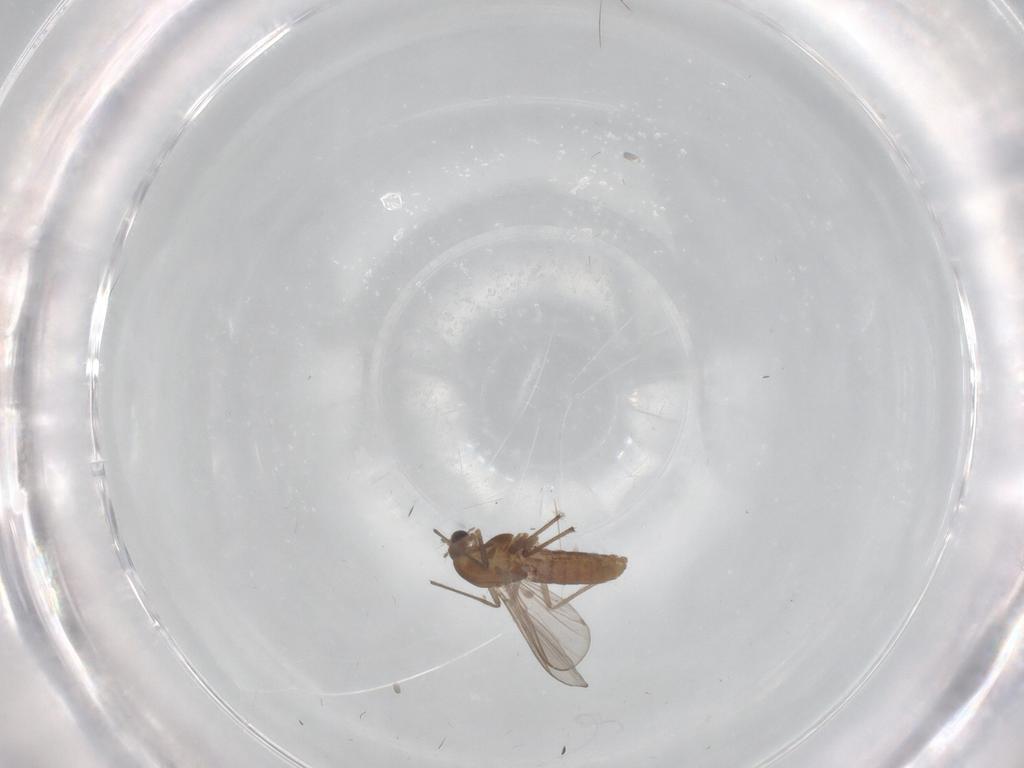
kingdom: Animalia
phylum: Arthropoda
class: Insecta
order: Diptera
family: Chironomidae
